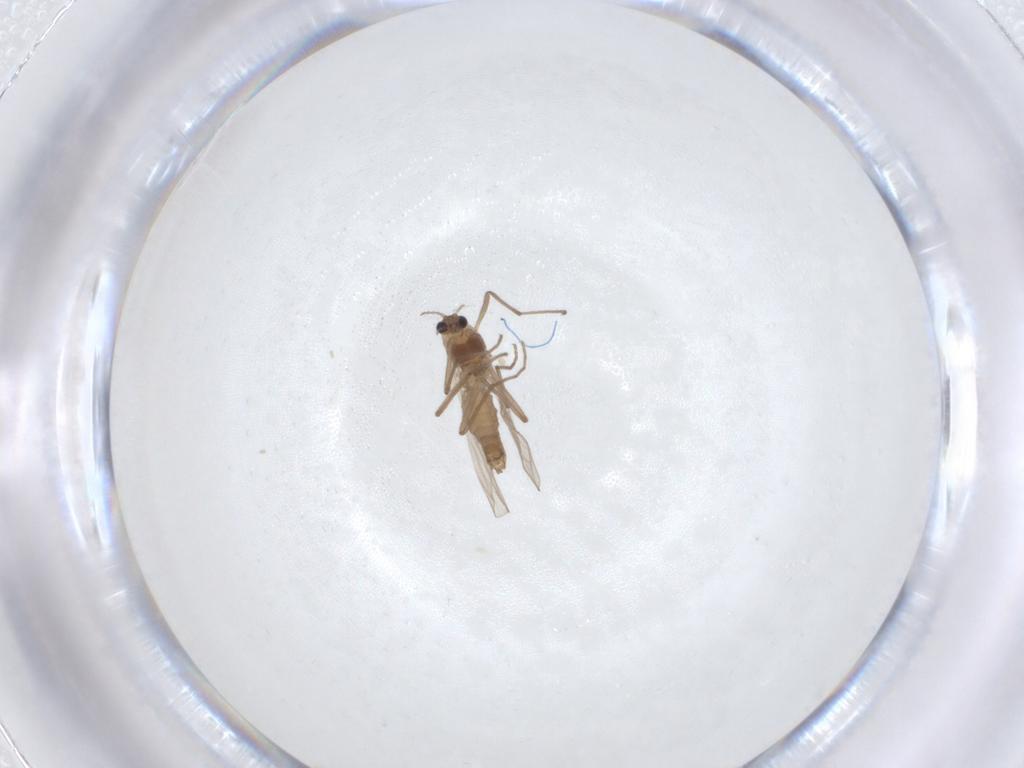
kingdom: Animalia
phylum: Arthropoda
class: Insecta
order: Diptera
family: Chironomidae
